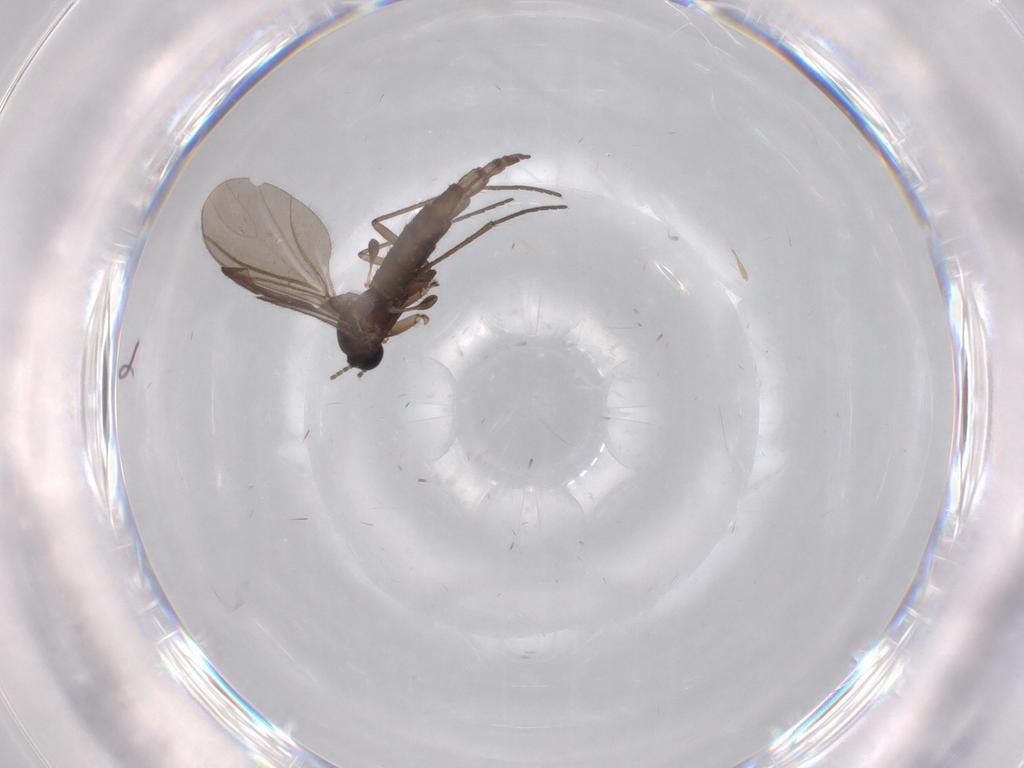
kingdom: Animalia
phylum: Arthropoda
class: Insecta
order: Diptera
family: Sciaridae
